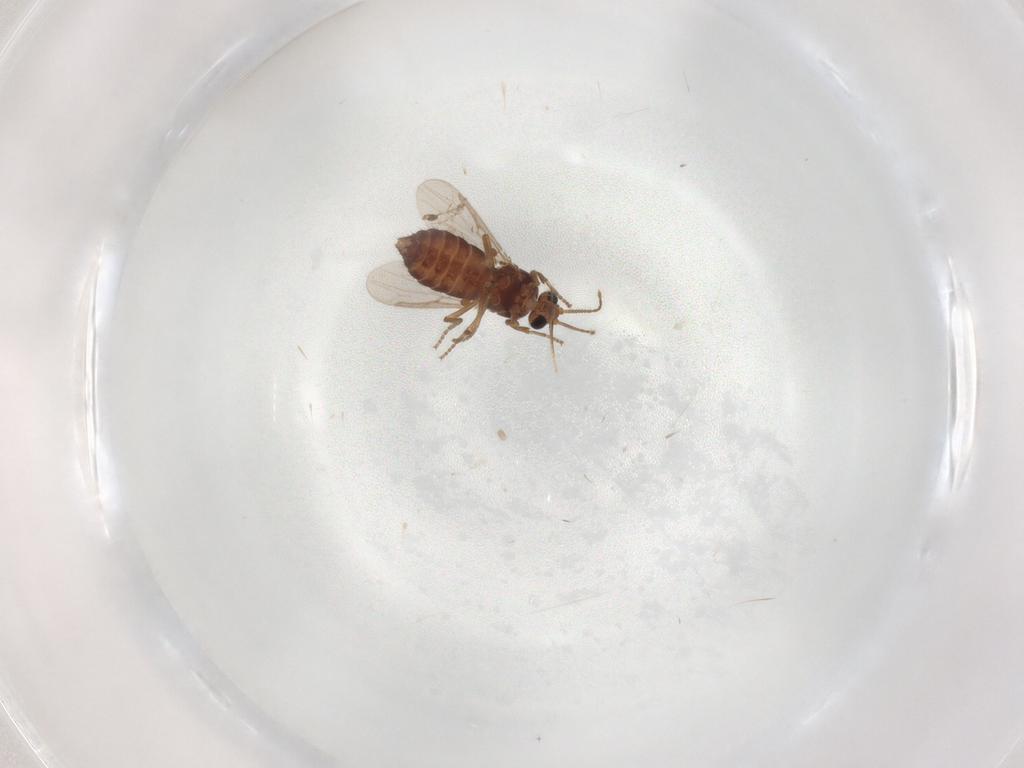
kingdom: Animalia
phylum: Arthropoda
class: Insecta
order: Diptera
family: Ceratopogonidae
